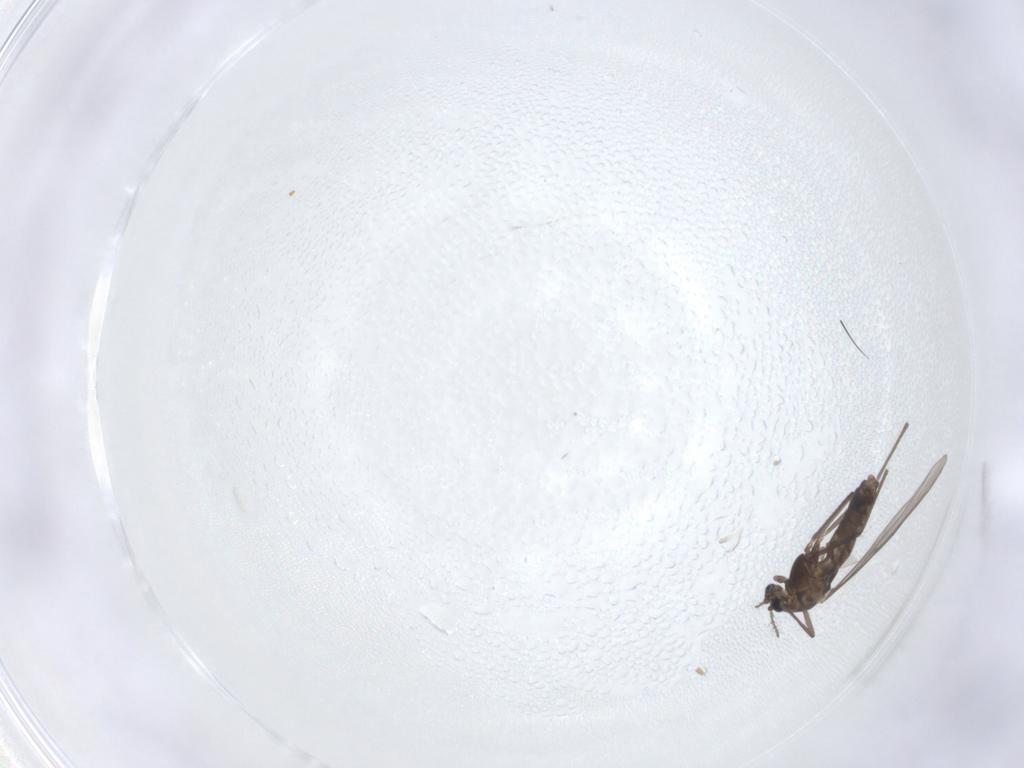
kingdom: Animalia
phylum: Arthropoda
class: Insecta
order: Diptera
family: Chironomidae
